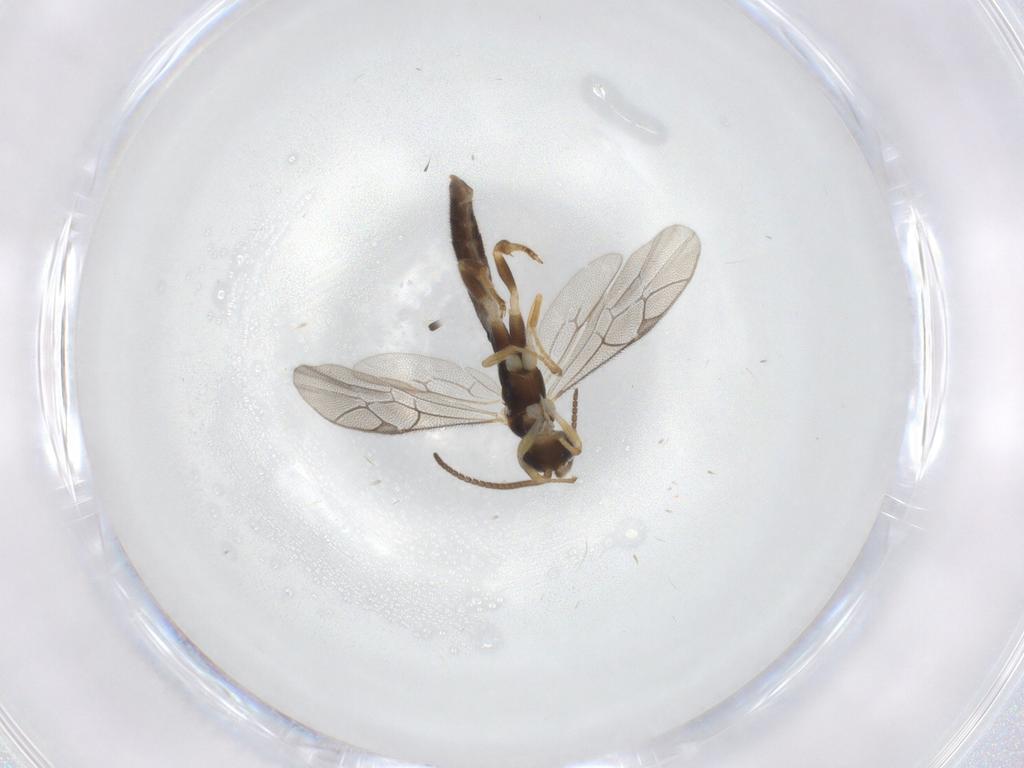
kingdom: Animalia
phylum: Arthropoda
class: Insecta
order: Hymenoptera
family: Ichneumonidae
